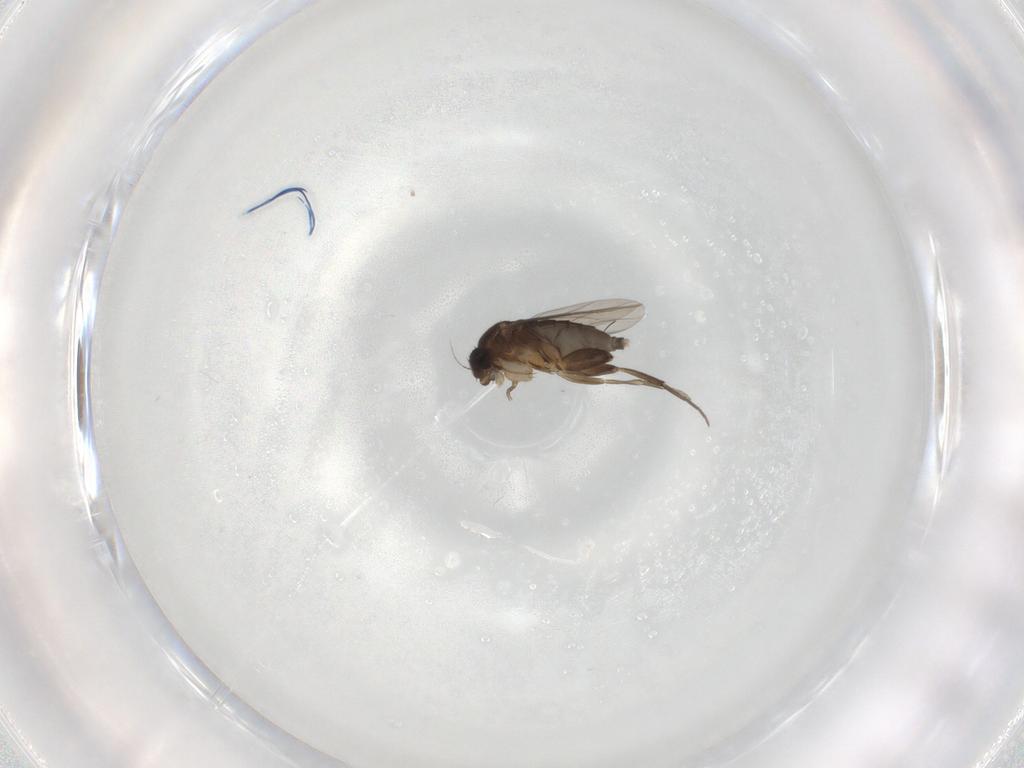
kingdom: Animalia
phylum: Arthropoda
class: Insecta
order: Diptera
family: Phoridae
